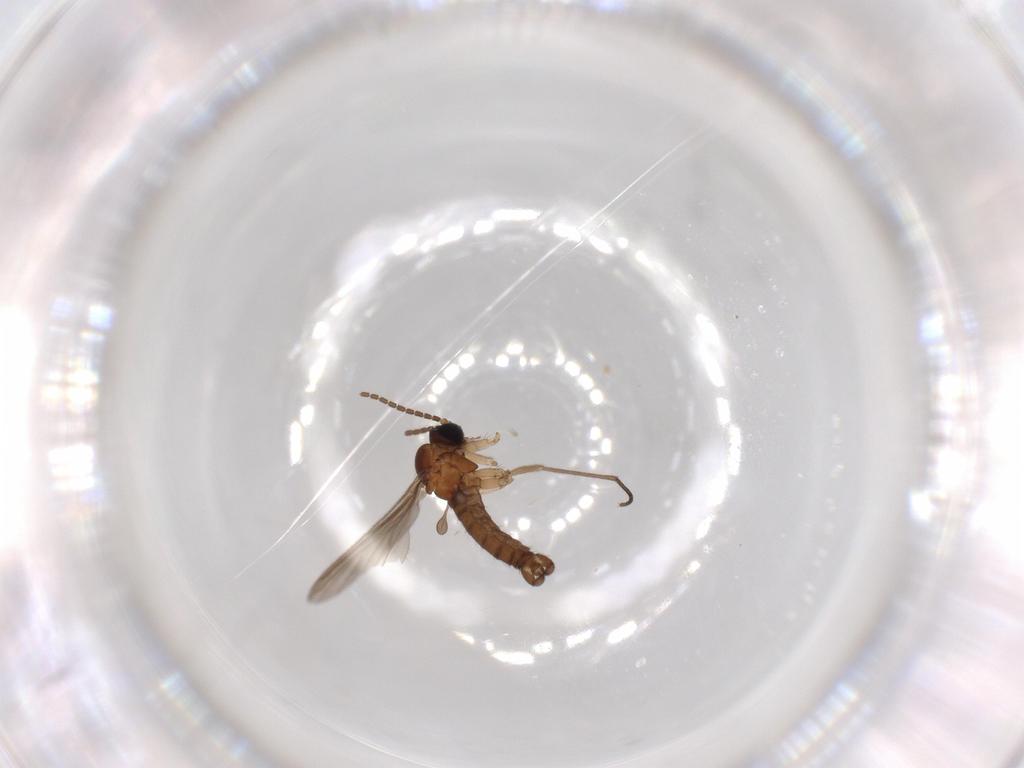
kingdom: Animalia
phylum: Arthropoda
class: Insecta
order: Diptera
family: Sciaridae
